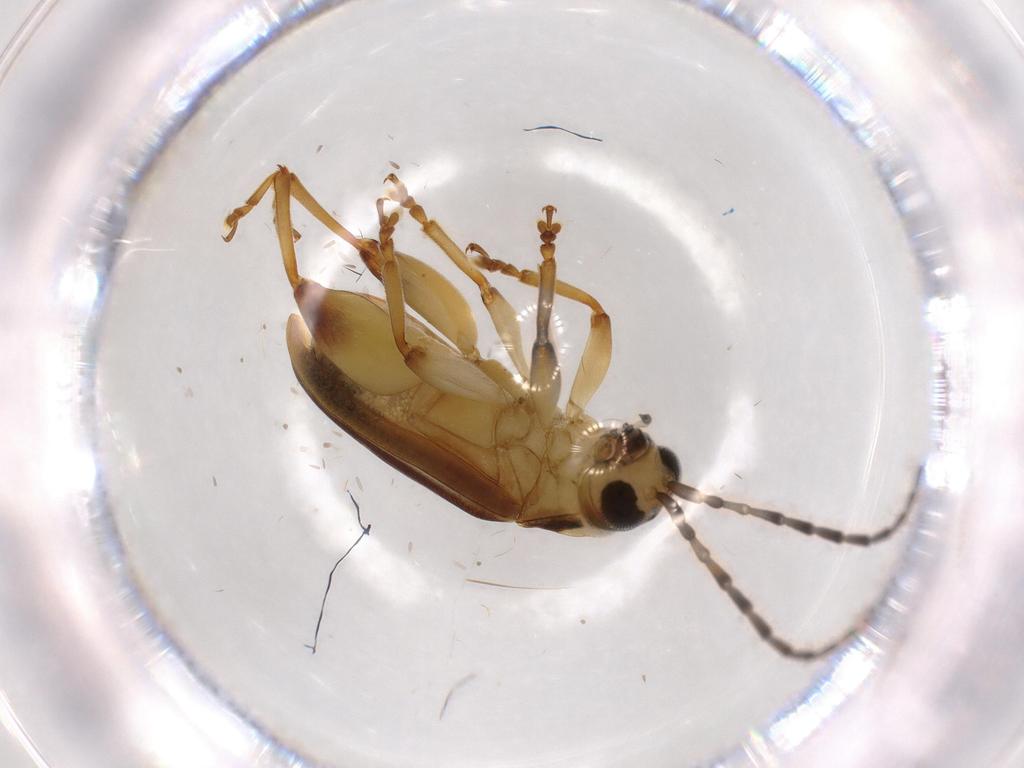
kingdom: Animalia
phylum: Arthropoda
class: Insecta
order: Coleoptera
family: Chrysomelidae
